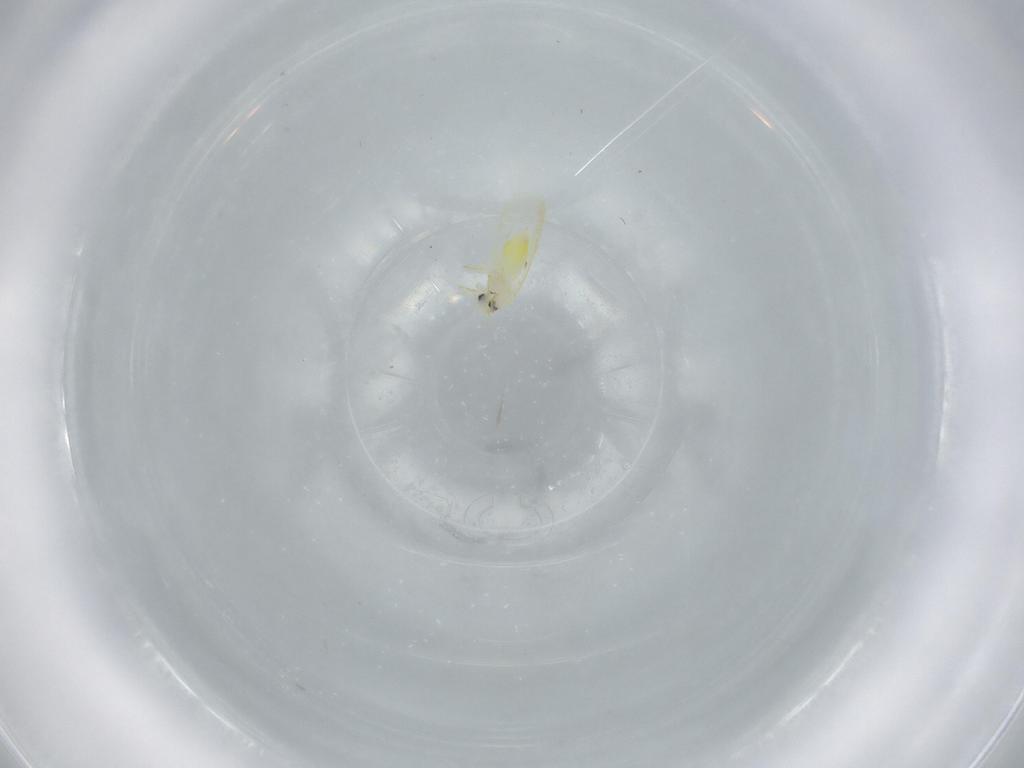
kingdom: Animalia
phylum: Arthropoda
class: Insecta
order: Hemiptera
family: Aleyrodidae
